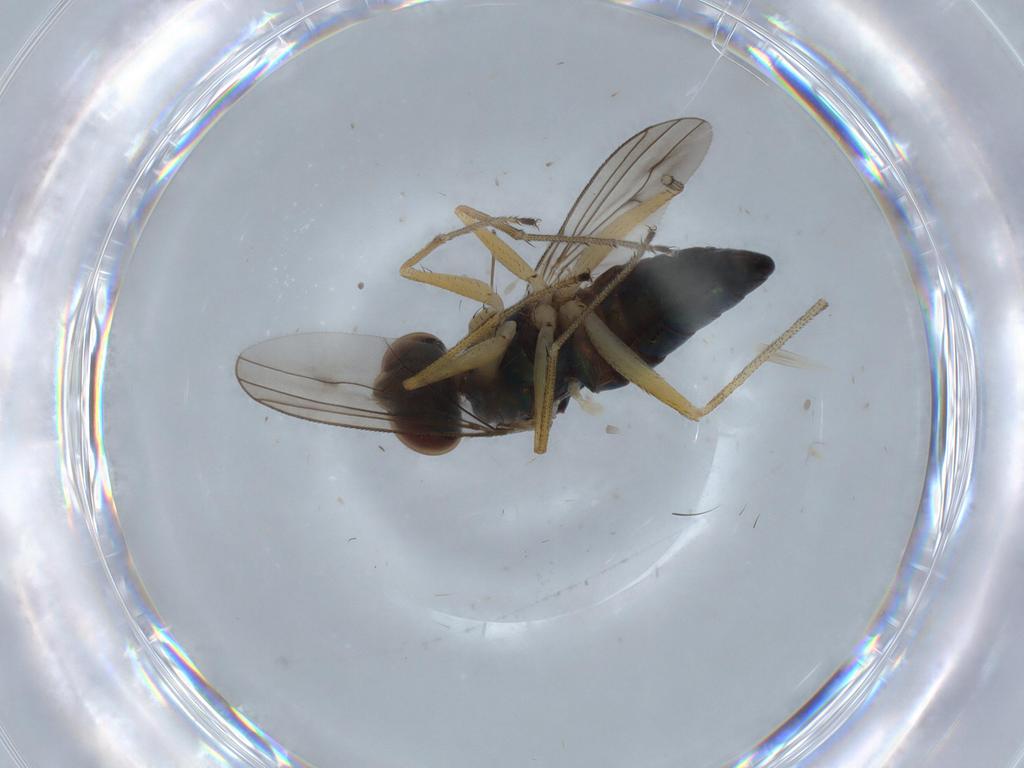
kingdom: Animalia
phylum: Arthropoda
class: Insecta
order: Diptera
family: Dolichopodidae
